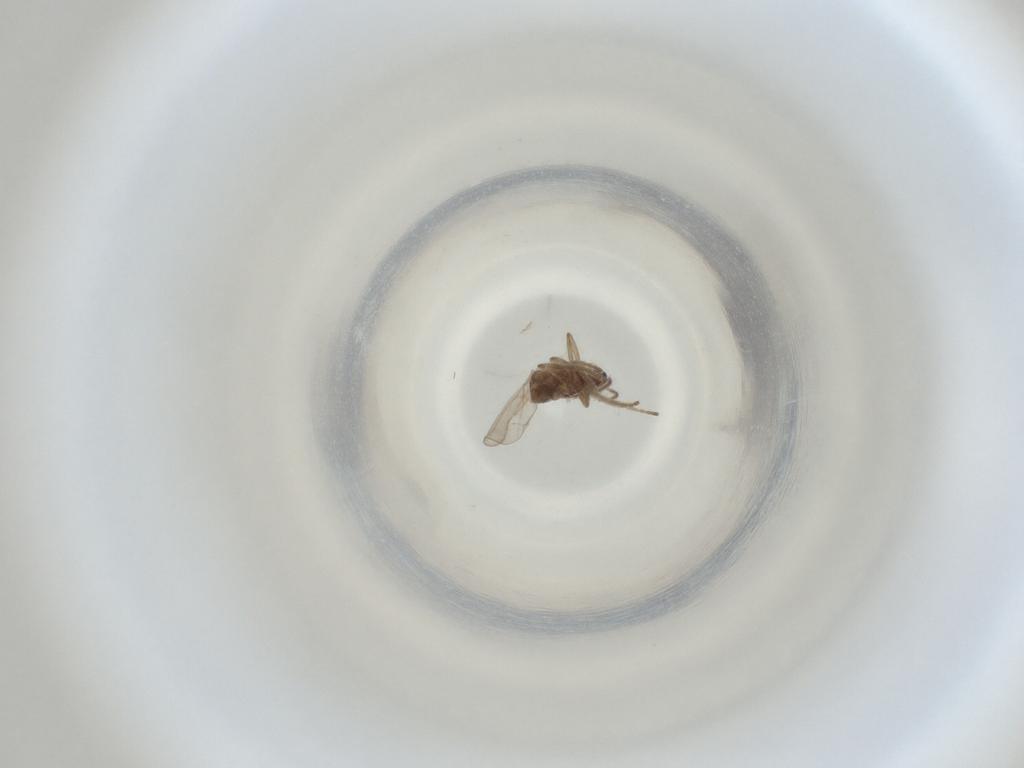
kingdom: Animalia
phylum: Arthropoda
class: Insecta
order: Diptera
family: Cecidomyiidae
